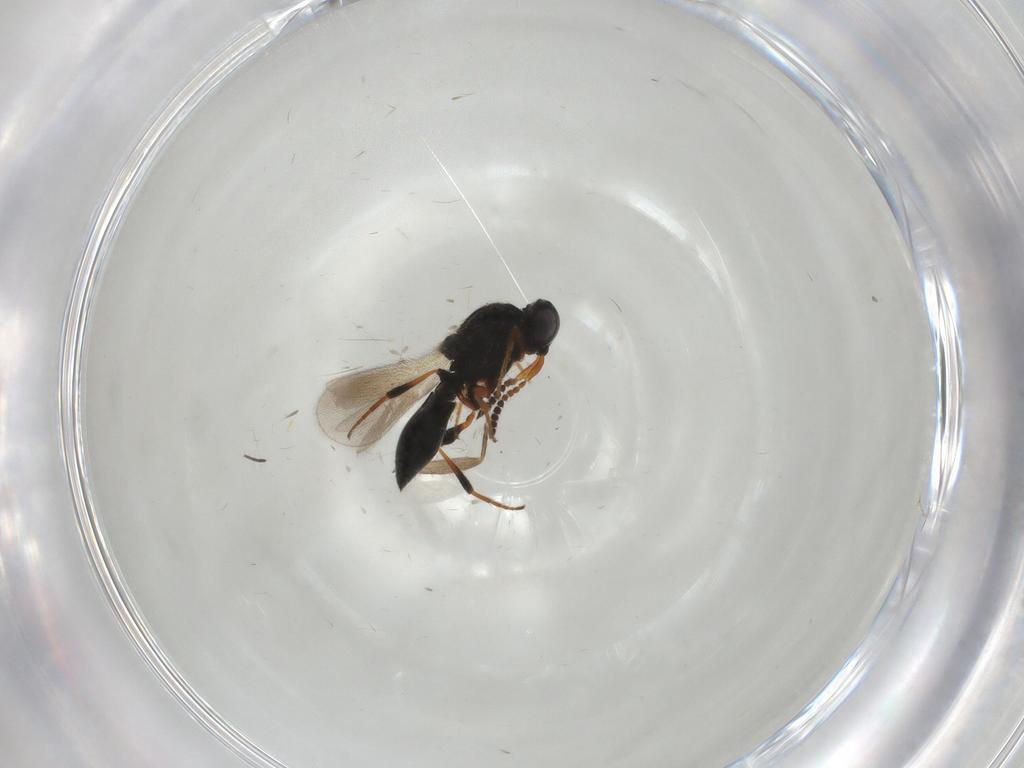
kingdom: Animalia
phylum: Arthropoda
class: Insecta
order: Hymenoptera
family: Platygastridae
